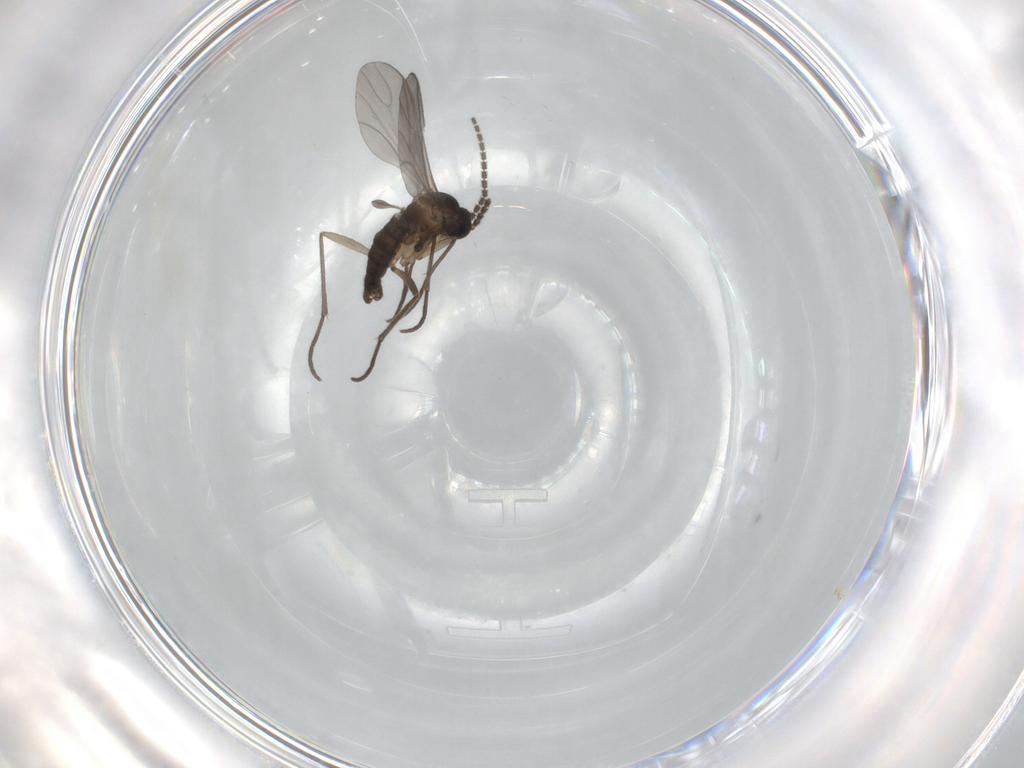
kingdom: Animalia
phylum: Arthropoda
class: Insecta
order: Diptera
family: Sciaridae
